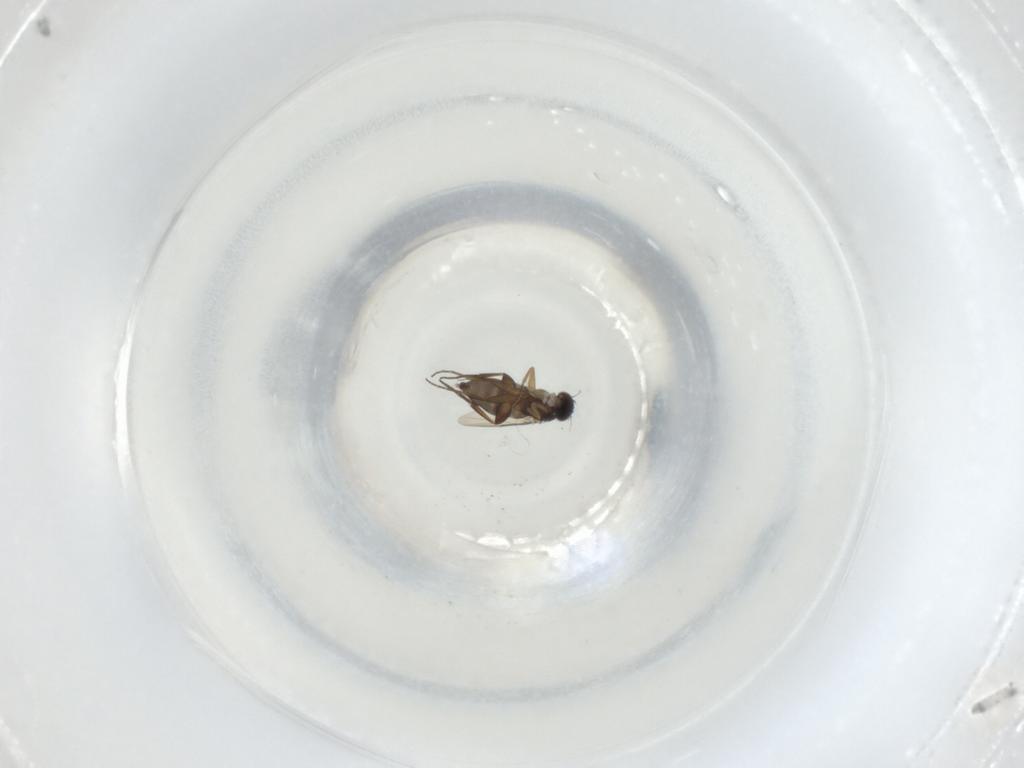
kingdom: Animalia
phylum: Arthropoda
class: Insecta
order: Diptera
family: Phoridae
